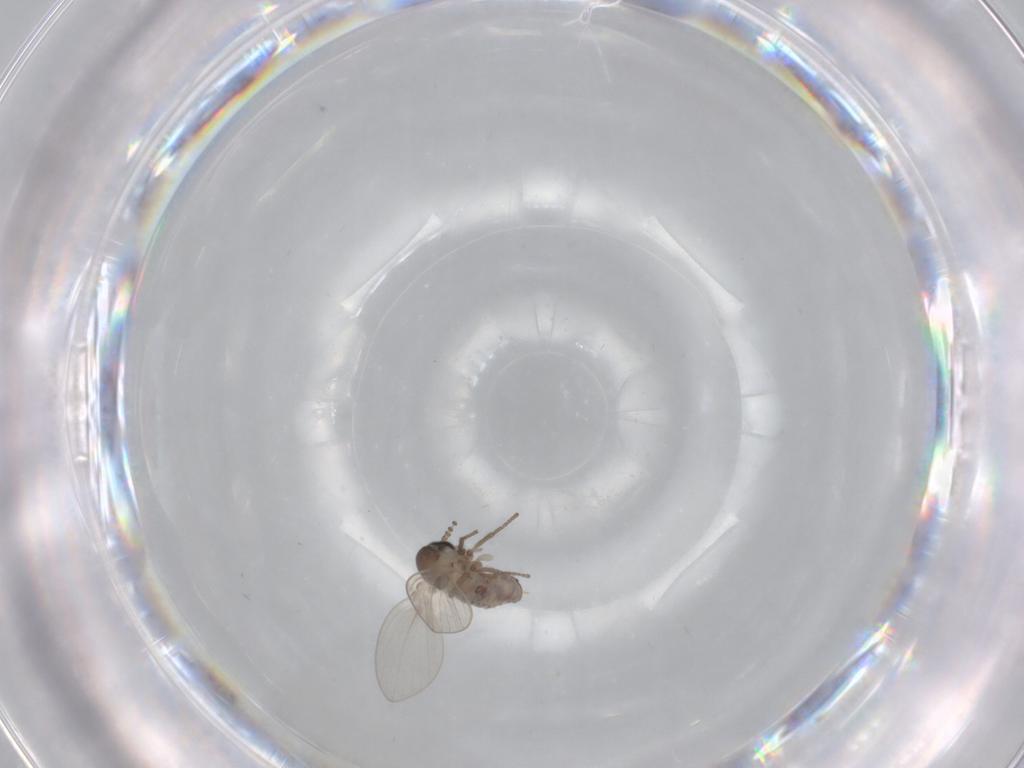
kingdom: Animalia
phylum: Arthropoda
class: Insecta
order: Diptera
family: Psychodidae
